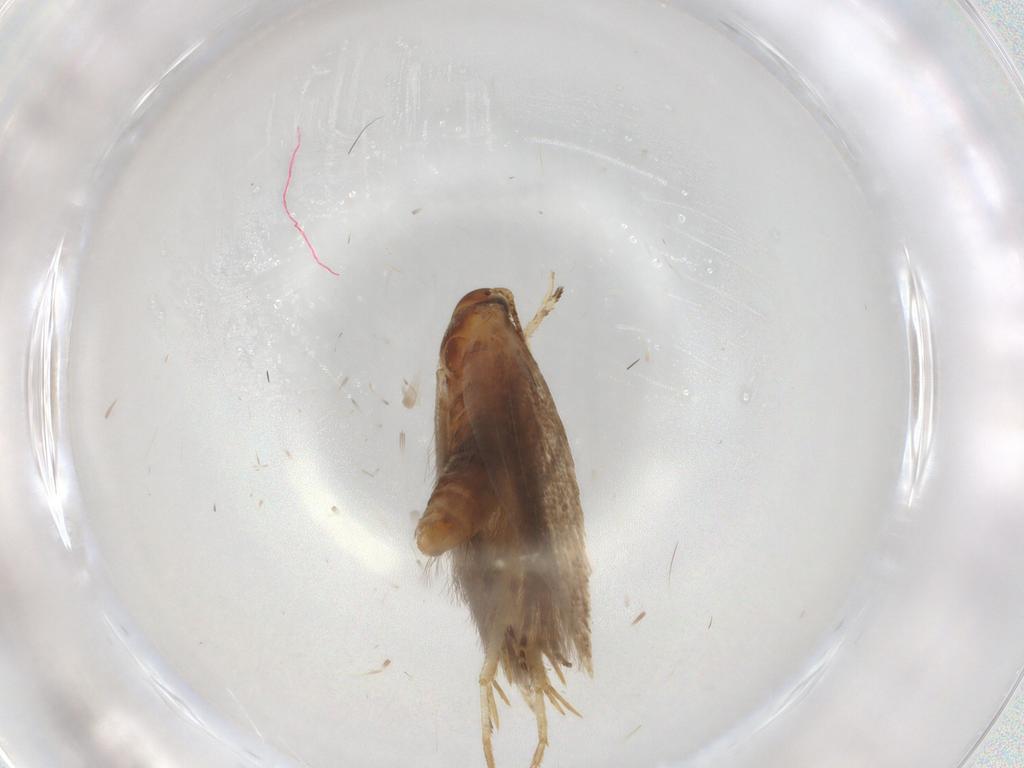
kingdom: Animalia
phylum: Arthropoda
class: Insecta
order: Lepidoptera
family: Gelechiidae
